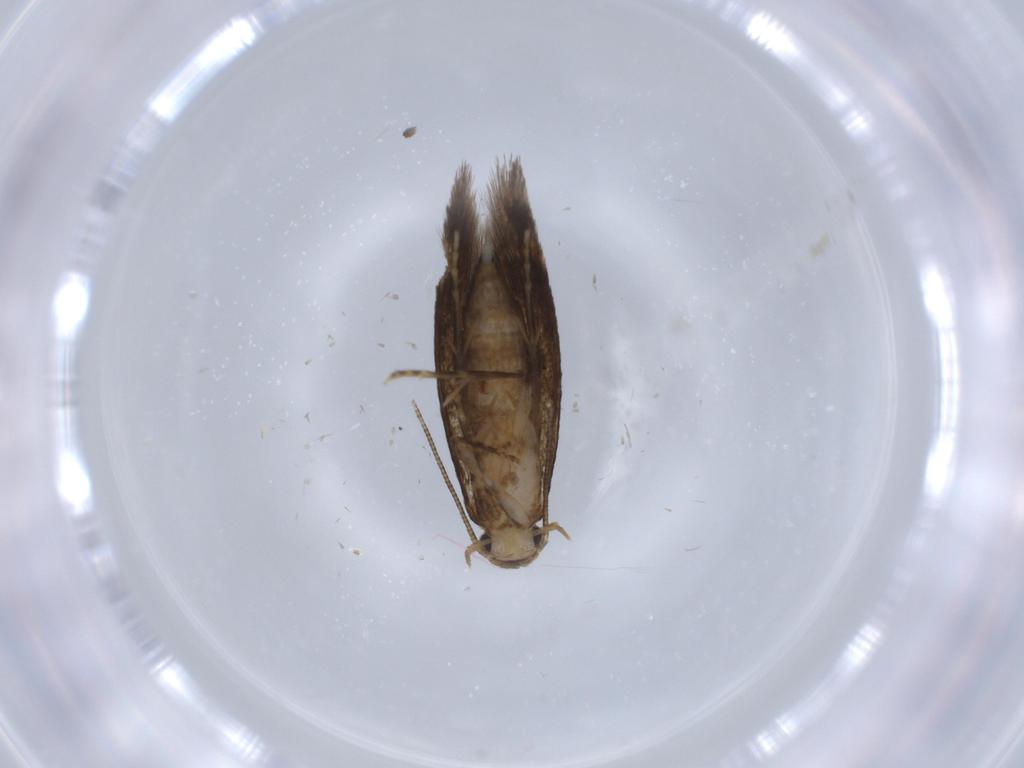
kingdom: Animalia
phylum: Arthropoda
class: Insecta
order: Lepidoptera
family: Tineidae
